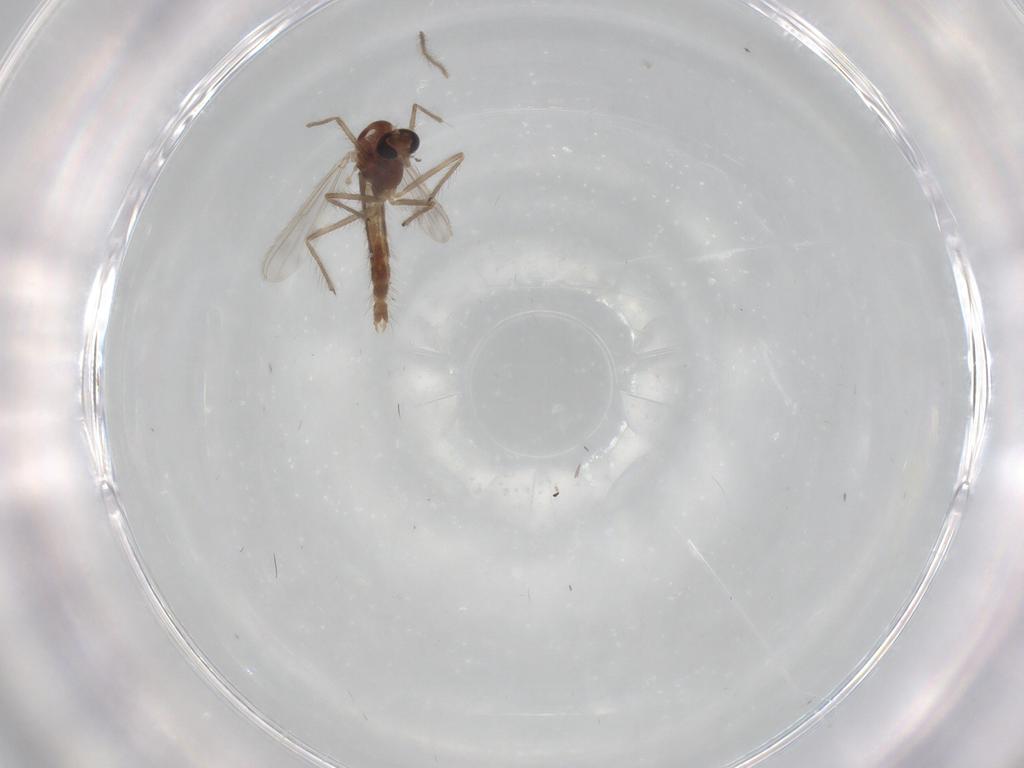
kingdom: Animalia
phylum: Arthropoda
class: Insecta
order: Diptera
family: Chironomidae
